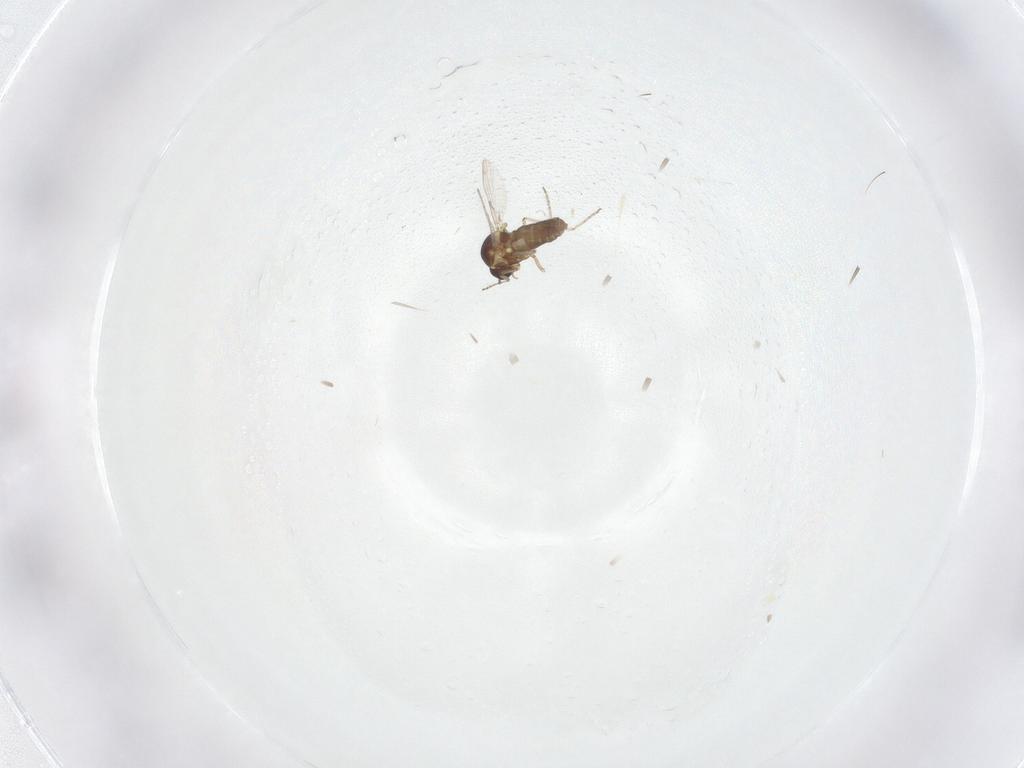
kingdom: Animalia
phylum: Arthropoda
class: Insecta
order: Diptera
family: Ceratopogonidae
